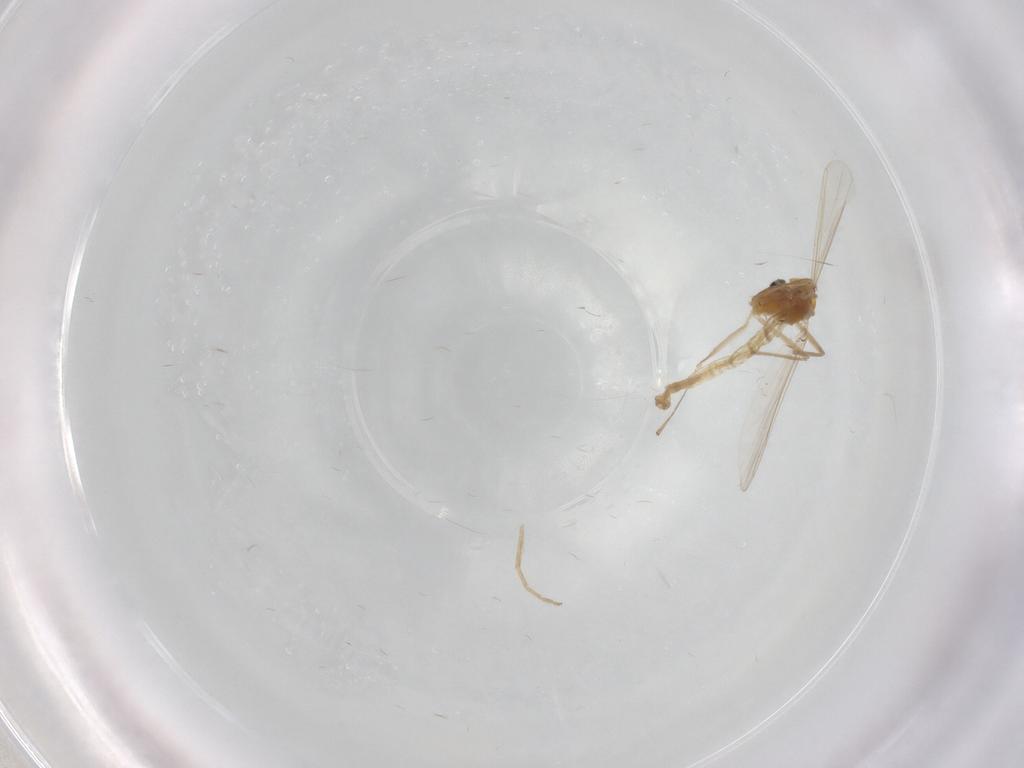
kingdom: Animalia
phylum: Arthropoda
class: Insecta
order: Diptera
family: Chironomidae
